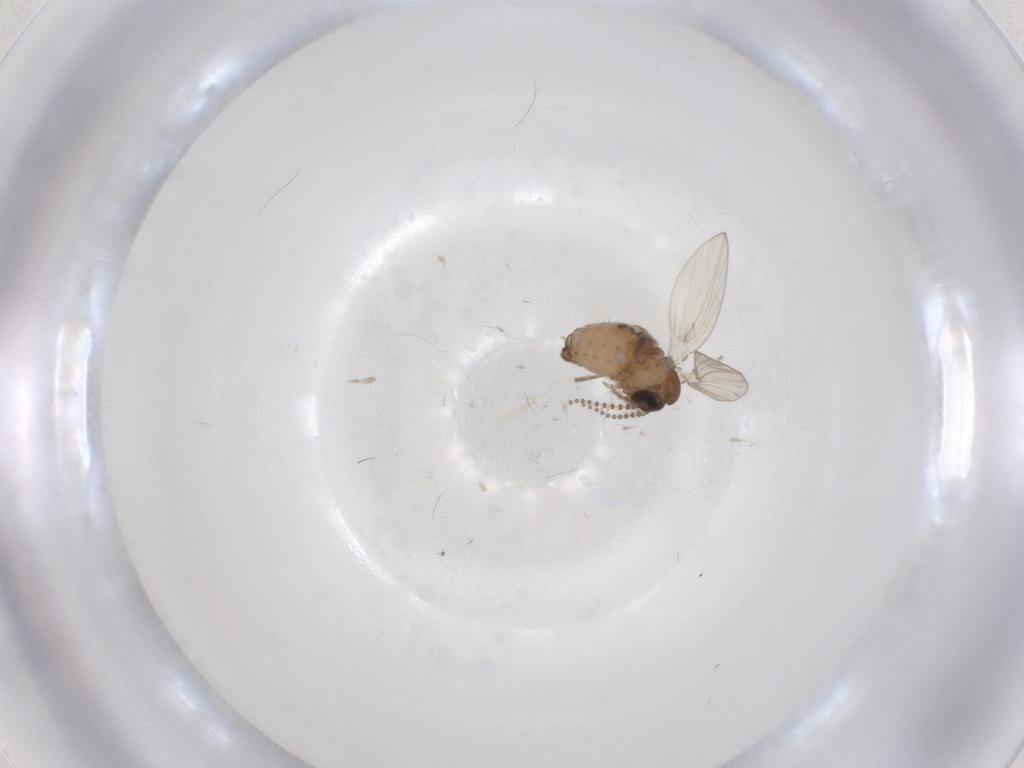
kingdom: Animalia
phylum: Arthropoda
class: Insecta
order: Diptera
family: Psychodidae
